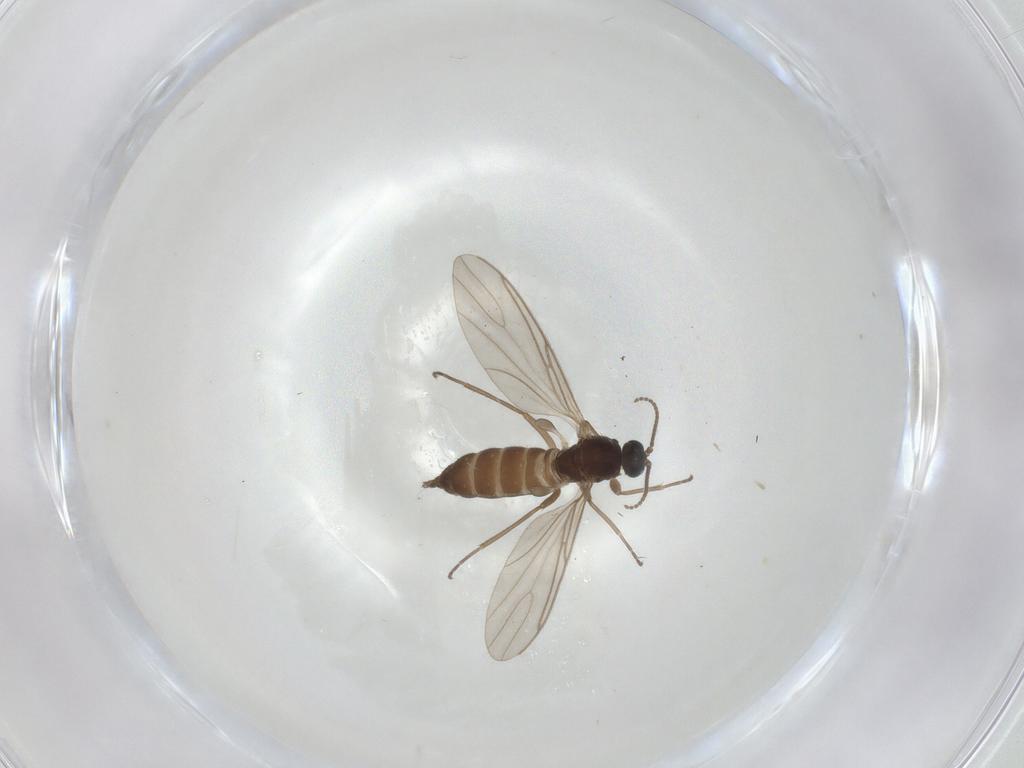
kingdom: Animalia
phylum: Arthropoda
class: Insecta
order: Diptera
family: Sciaridae
